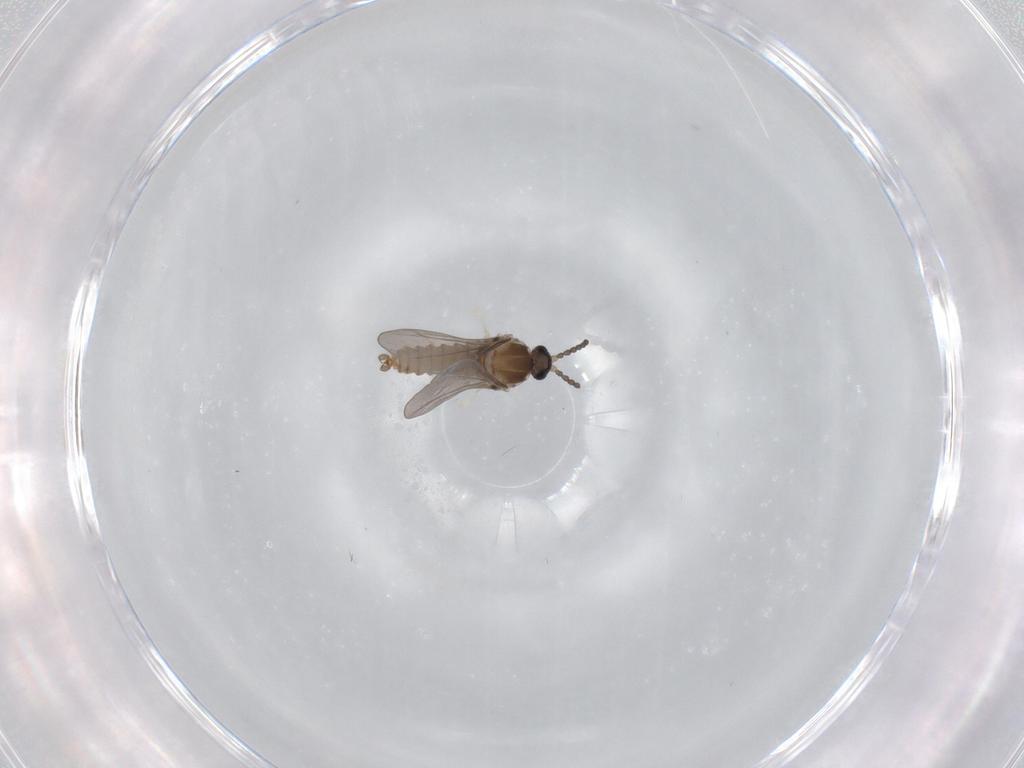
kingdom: Animalia
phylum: Arthropoda
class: Insecta
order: Diptera
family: Cecidomyiidae
